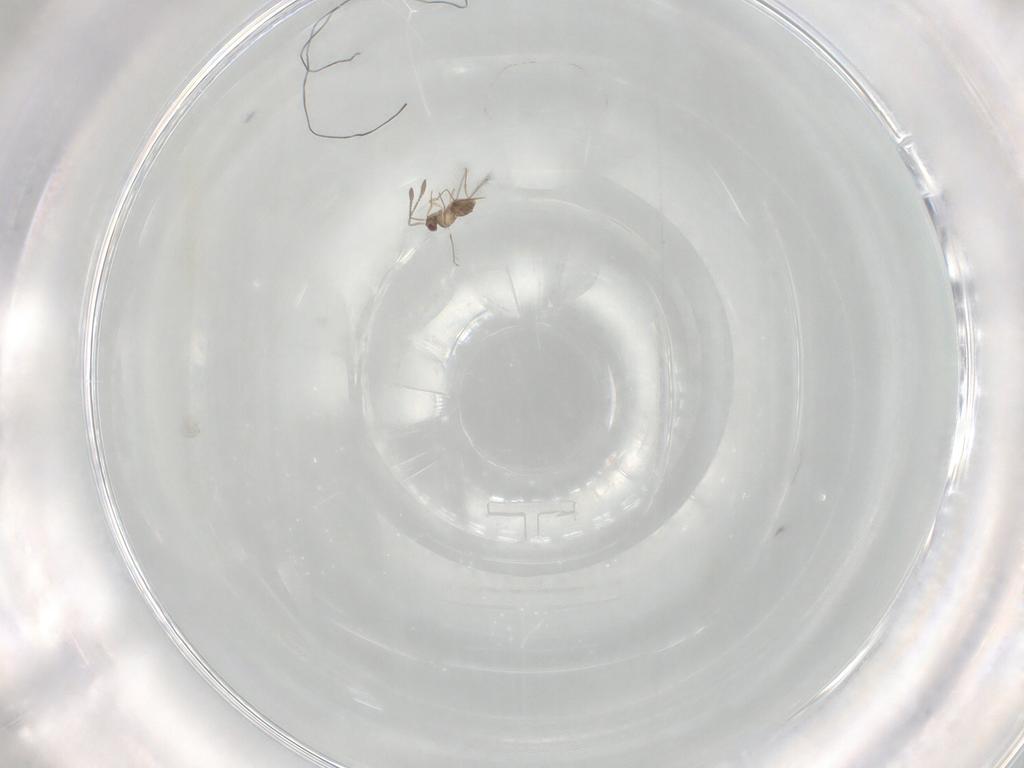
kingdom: Animalia
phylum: Arthropoda
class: Insecta
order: Hymenoptera
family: Mymaridae
